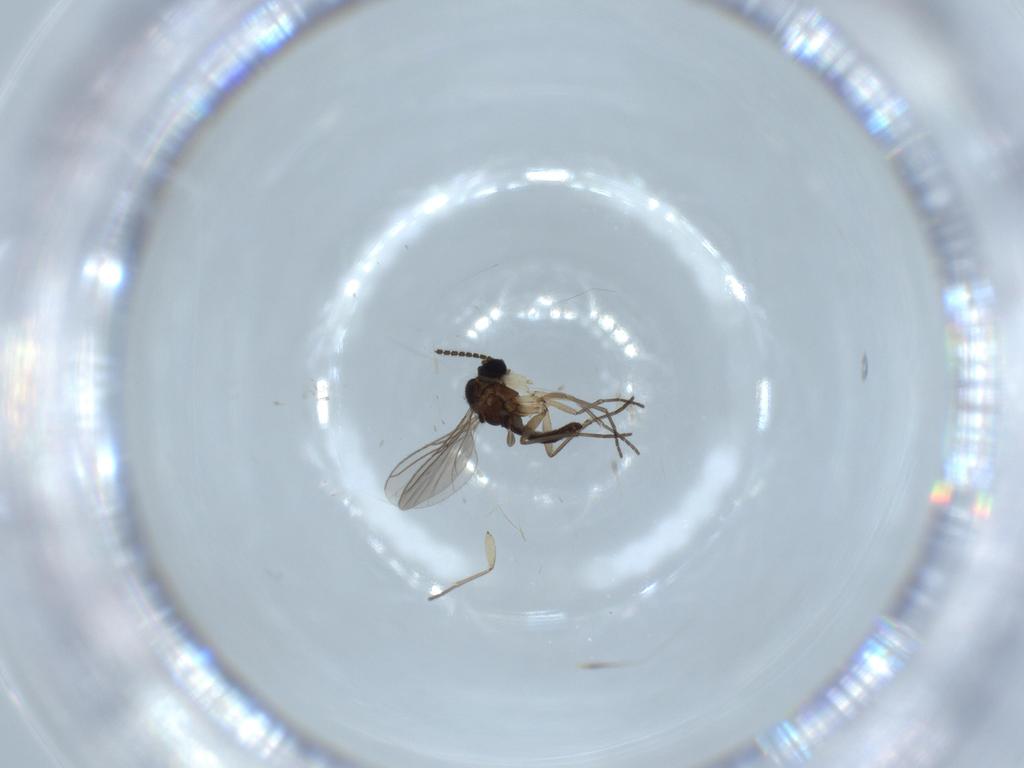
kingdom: Animalia
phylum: Arthropoda
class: Insecta
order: Diptera
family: Sciaridae
